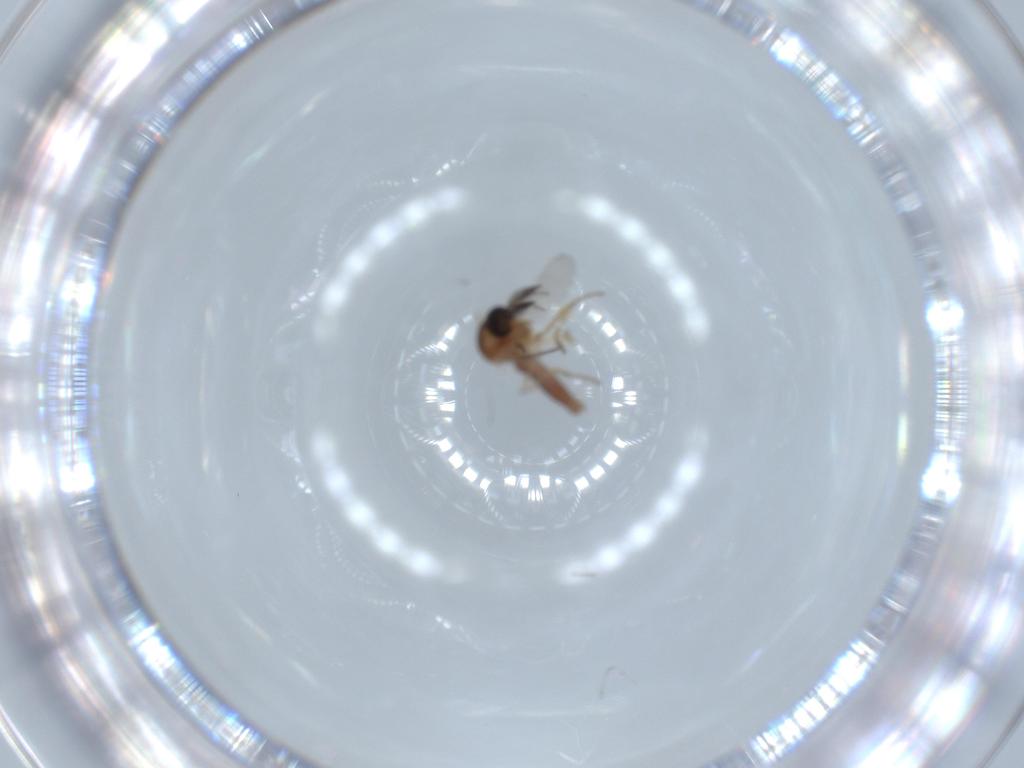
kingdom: Animalia
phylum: Arthropoda
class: Insecta
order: Diptera
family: Ceratopogonidae
